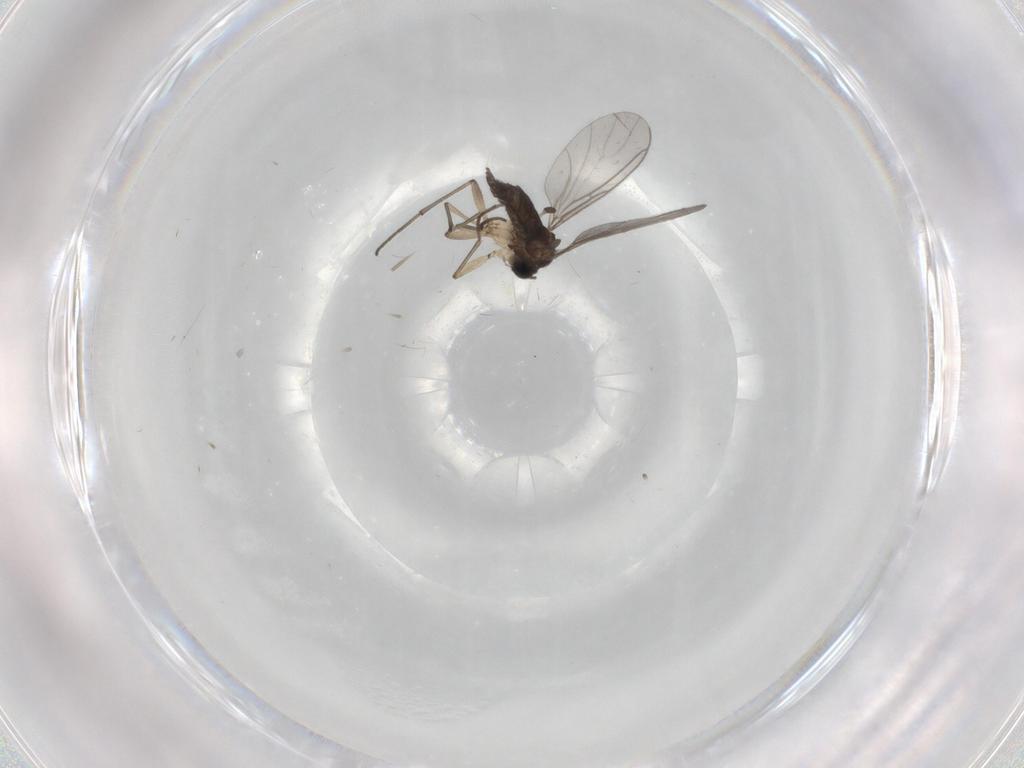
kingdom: Animalia
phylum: Arthropoda
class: Insecta
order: Diptera
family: Sciaridae
